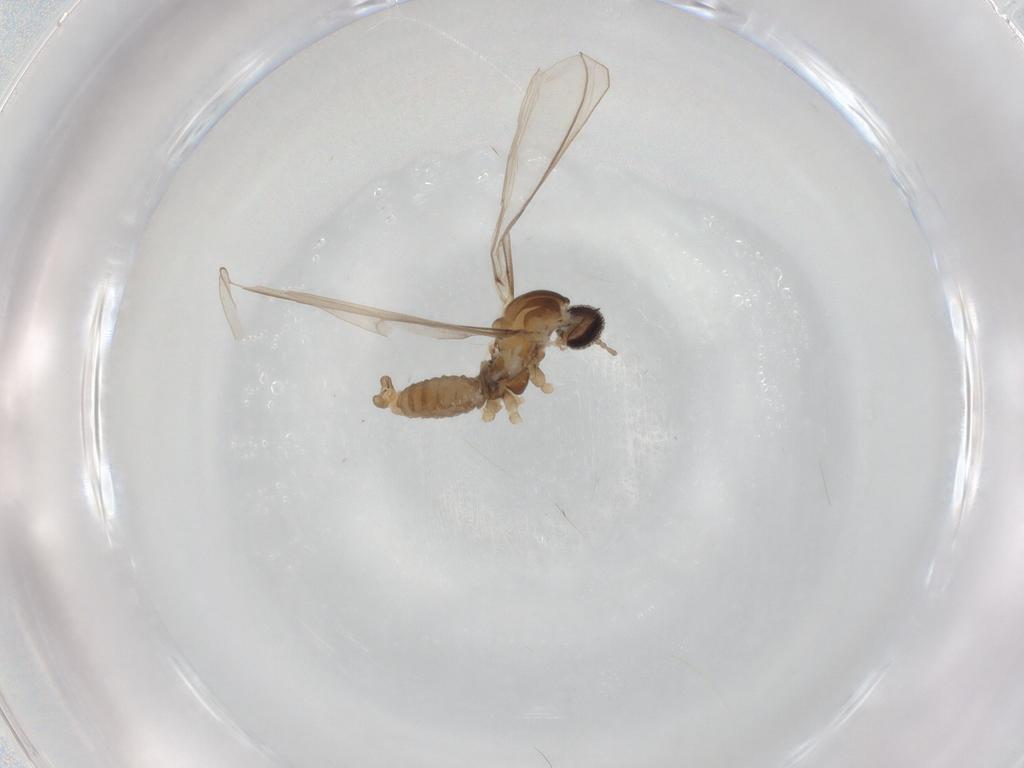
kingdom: Animalia
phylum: Arthropoda
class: Insecta
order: Diptera
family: Cecidomyiidae
